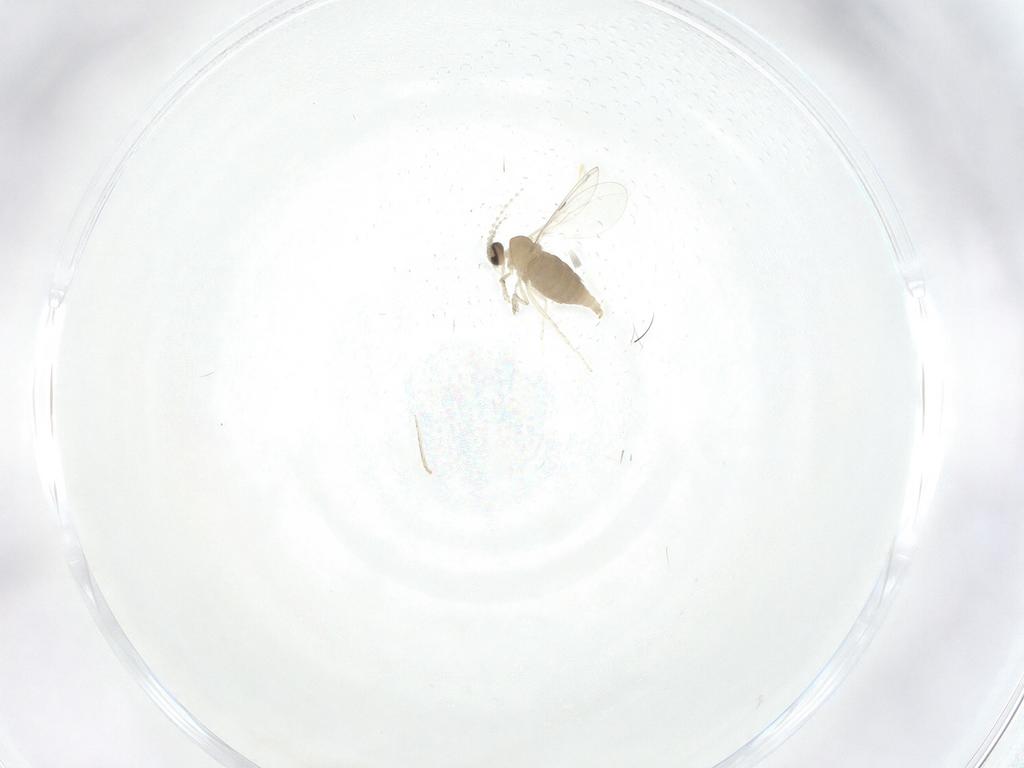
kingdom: Animalia
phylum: Arthropoda
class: Insecta
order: Diptera
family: Cecidomyiidae
